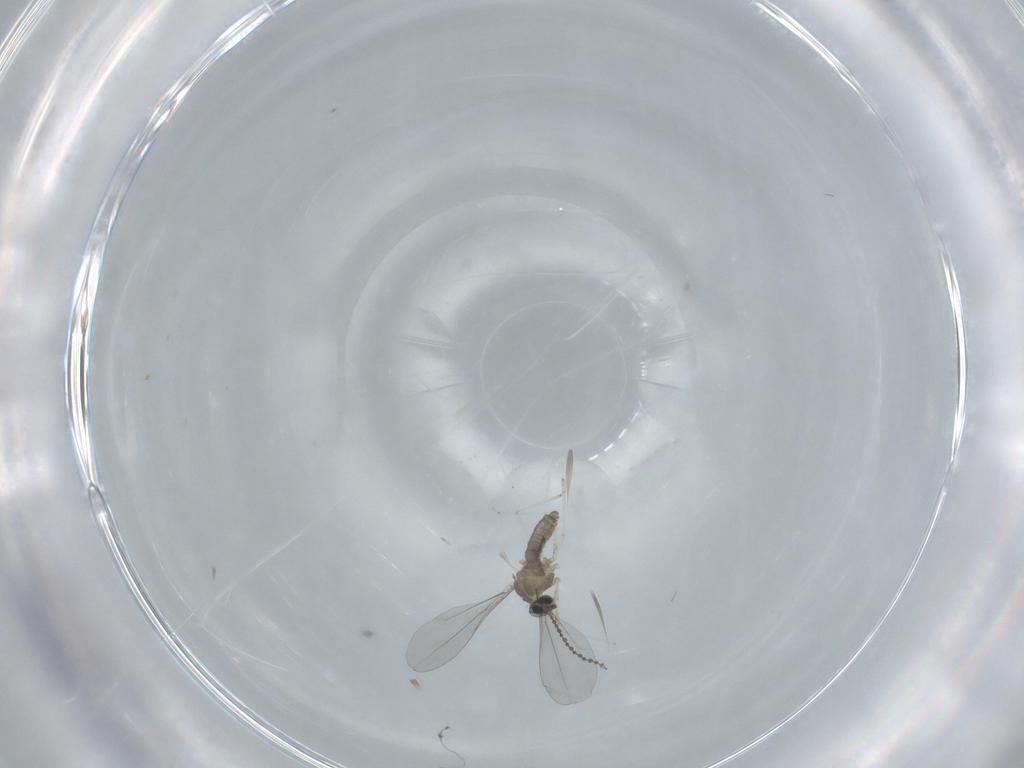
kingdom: Animalia
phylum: Arthropoda
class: Insecta
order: Diptera
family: Cecidomyiidae
